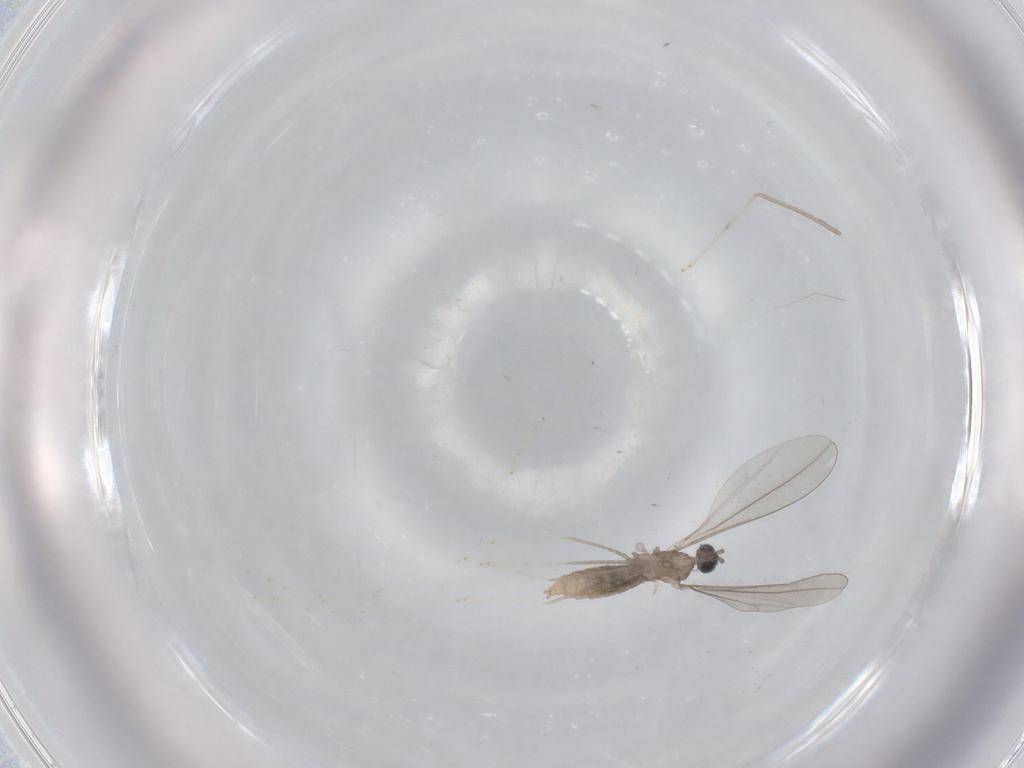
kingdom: Animalia
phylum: Arthropoda
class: Insecta
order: Diptera
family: Cecidomyiidae
